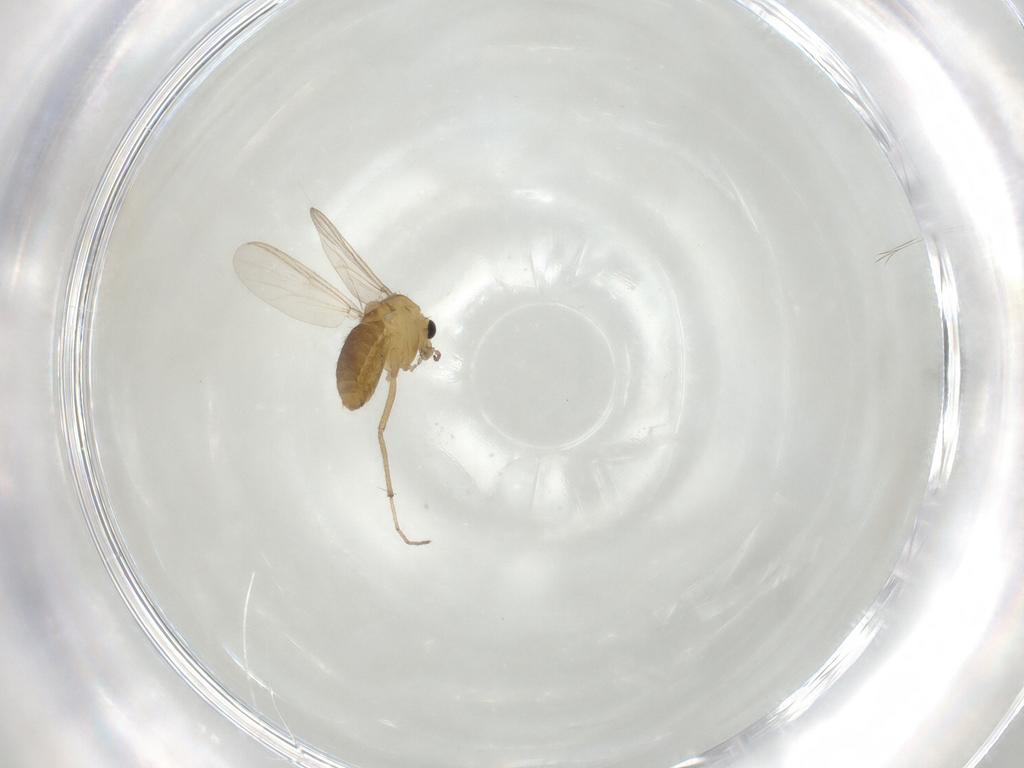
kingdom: Animalia
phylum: Arthropoda
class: Insecta
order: Diptera
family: Chironomidae
